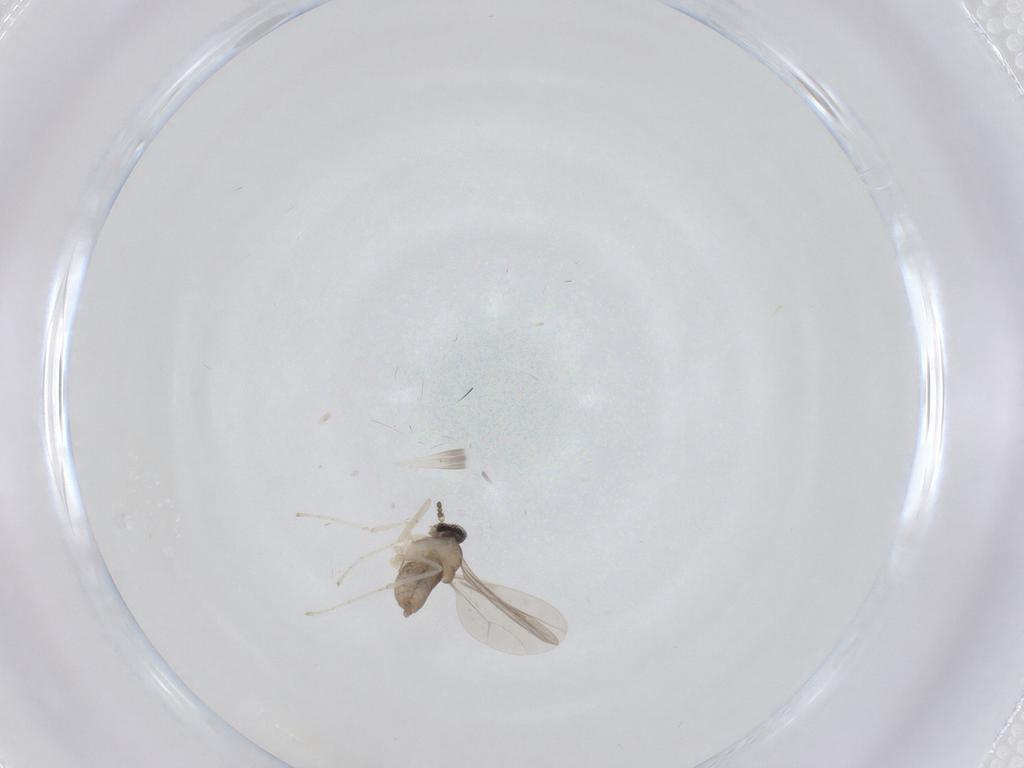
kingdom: Animalia
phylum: Arthropoda
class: Insecta
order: Diptera
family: Cecidomyiidae
